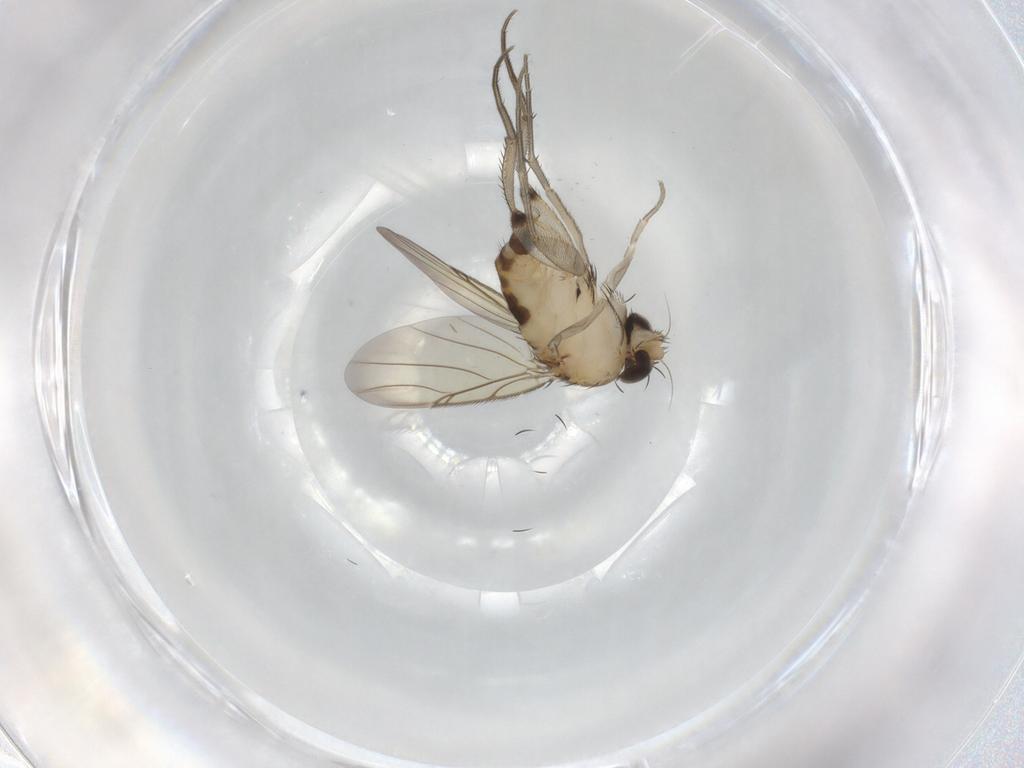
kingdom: Animalia
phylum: Arthropoda
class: Insecta
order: Diptera
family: Phoridae
